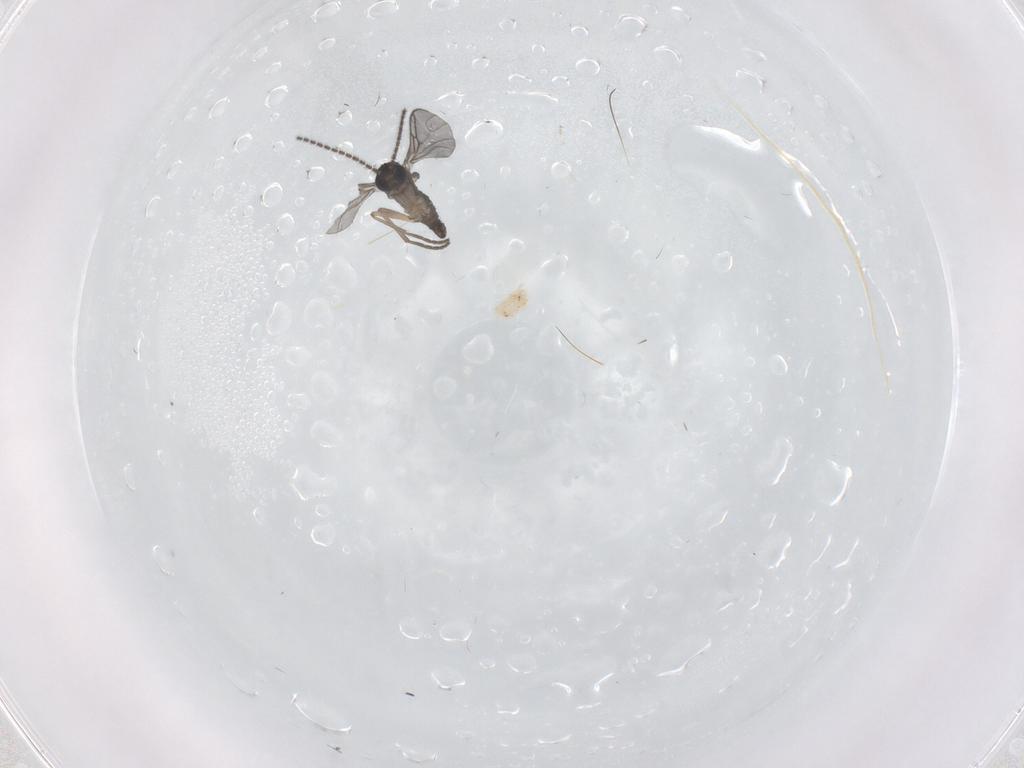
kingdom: Animalia
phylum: Arthropoda
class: Insecta
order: Diptera
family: Sciaridae
